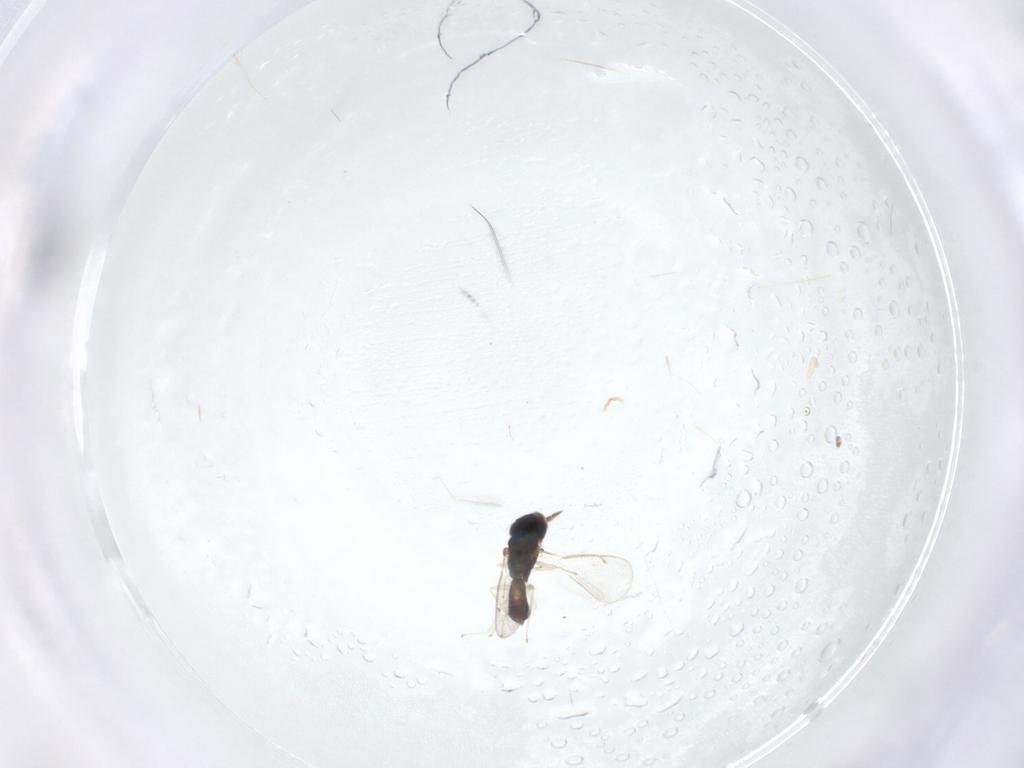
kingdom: Animalia
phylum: Arthropoda
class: Insecta
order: Hymenoptera
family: Eulophidae
